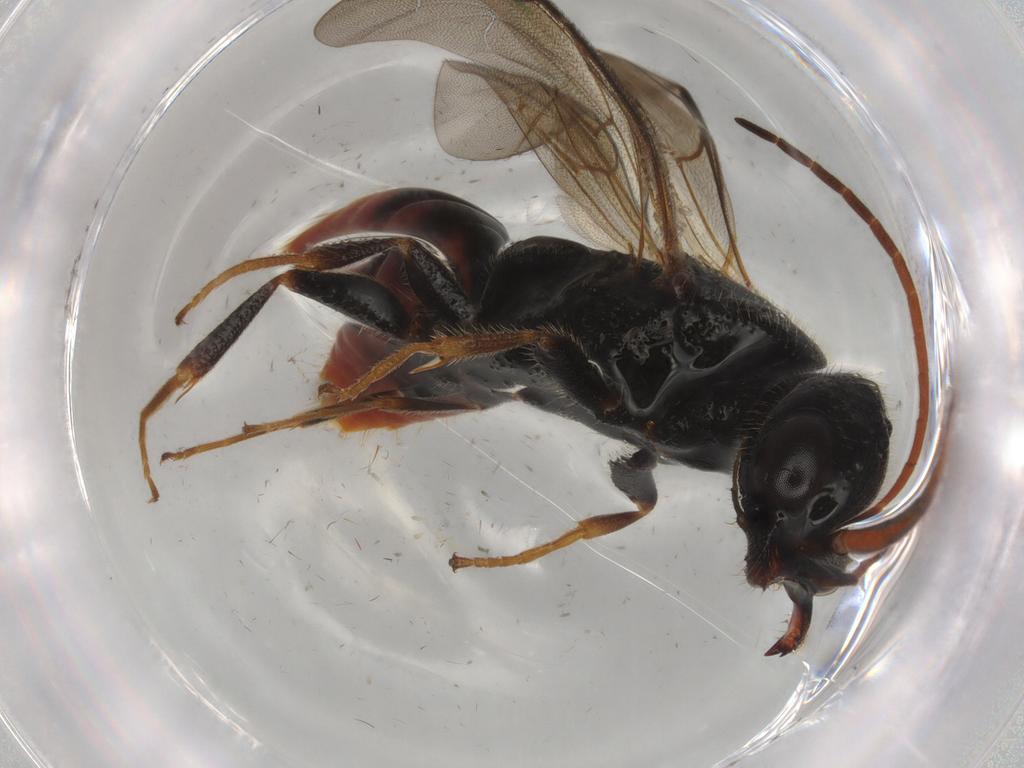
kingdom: Animalia
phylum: Arthropoda
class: Insecta
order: Hymenoptera
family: Bethylidae
